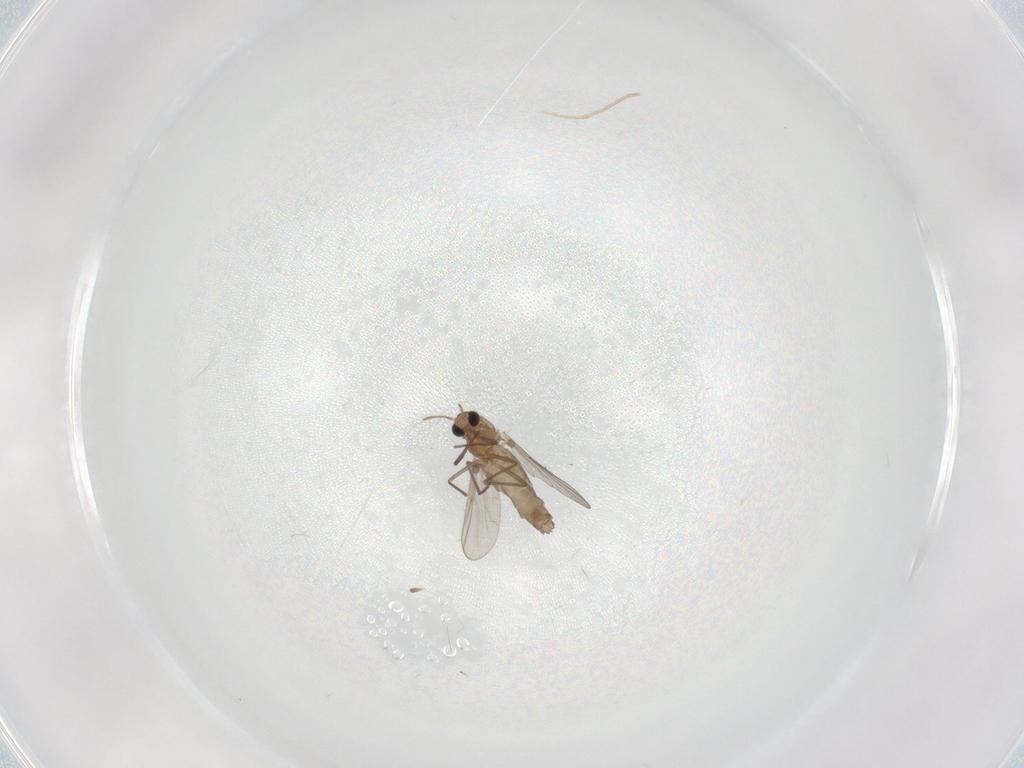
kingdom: Animalia
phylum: Arthropoda
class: Insecta
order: Diptera
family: Chironomidae
